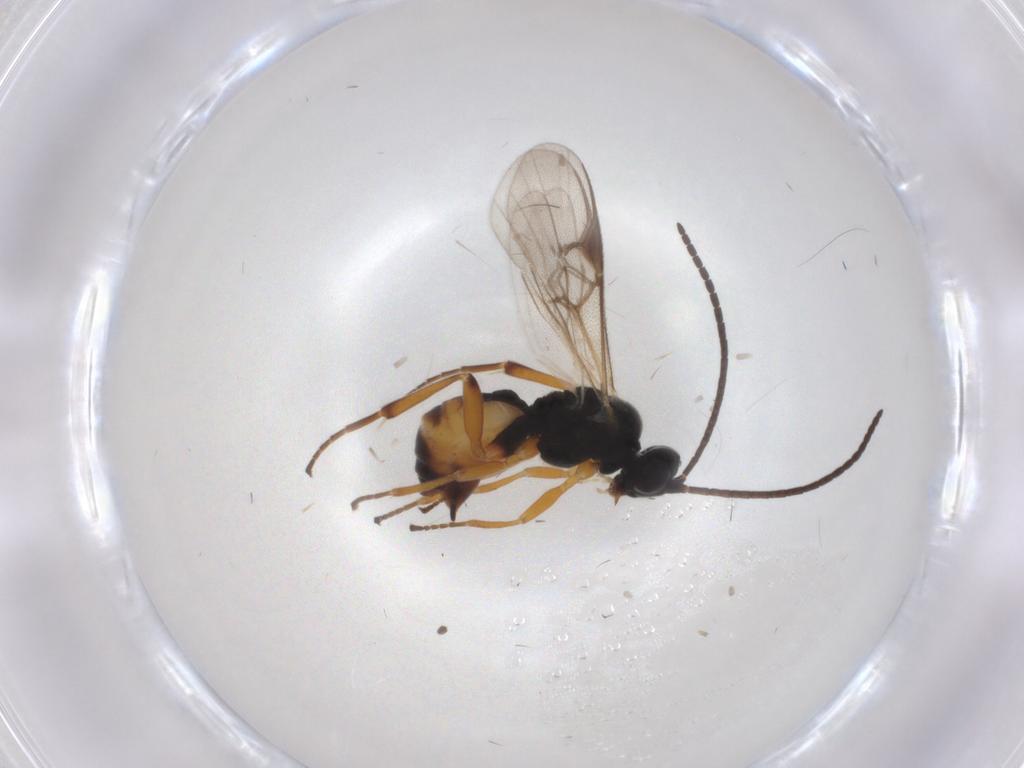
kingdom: Animalia
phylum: Arthropoda
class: Insecta
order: Hymenoptera
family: Braconidae
